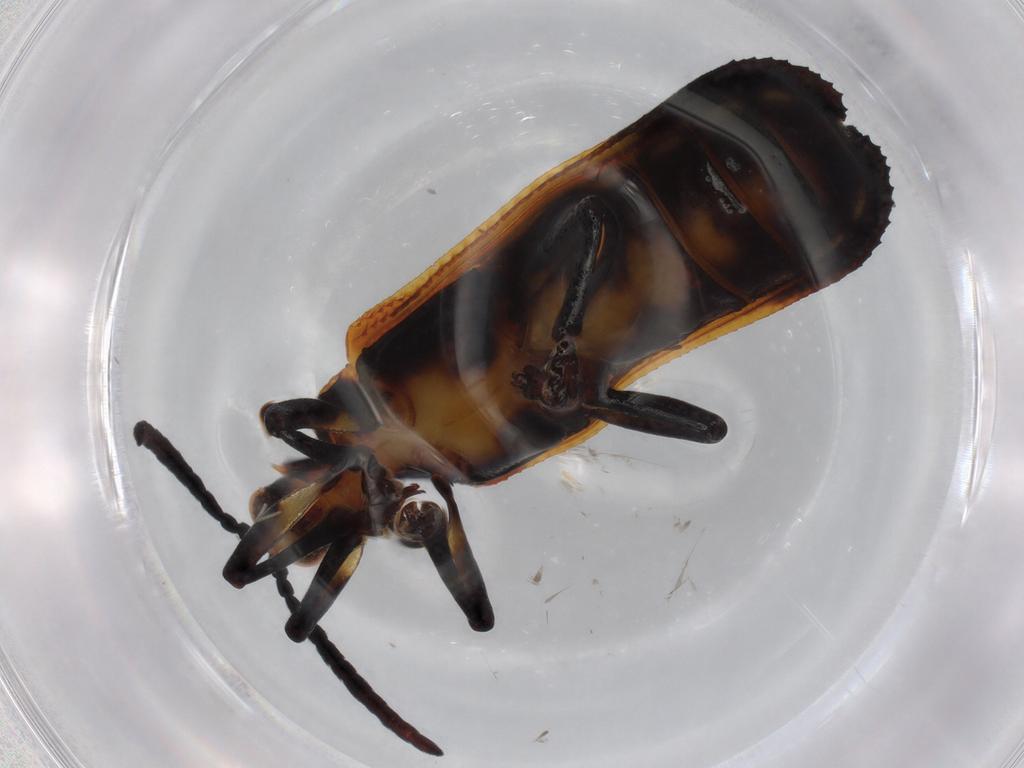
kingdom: Animalia
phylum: Arthropoda
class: Insecta
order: Coleoptera
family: Chrysomelidae
